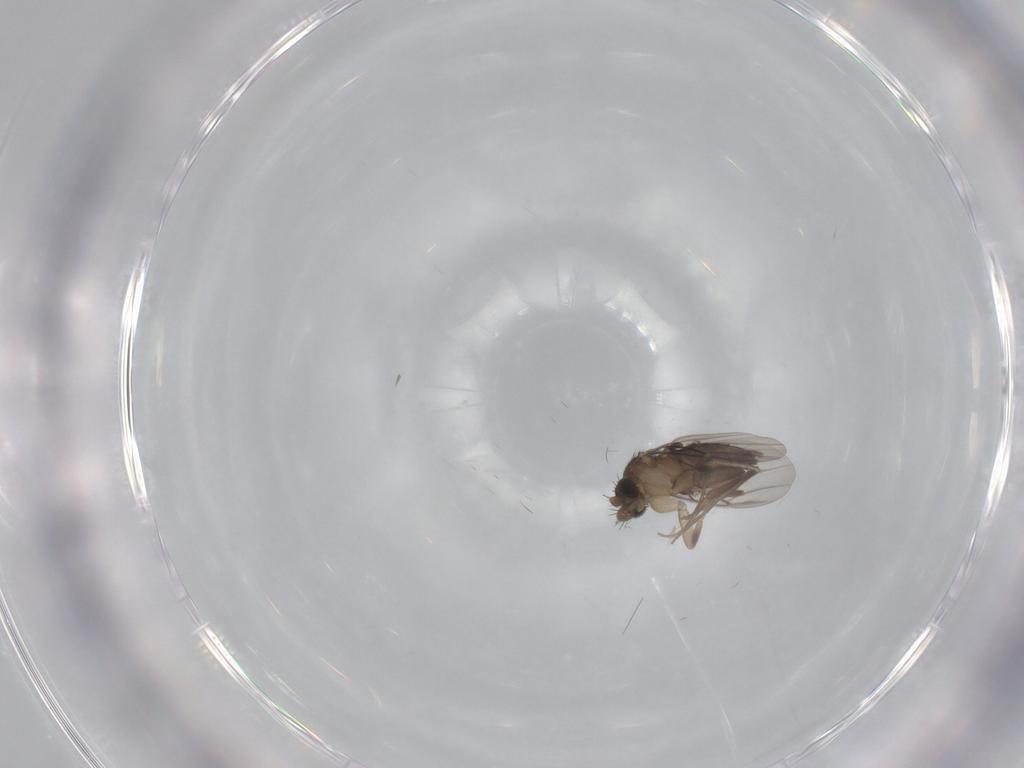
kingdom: Animalia
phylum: Arthropoda
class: Insecta
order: Diptera
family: Phoridae
